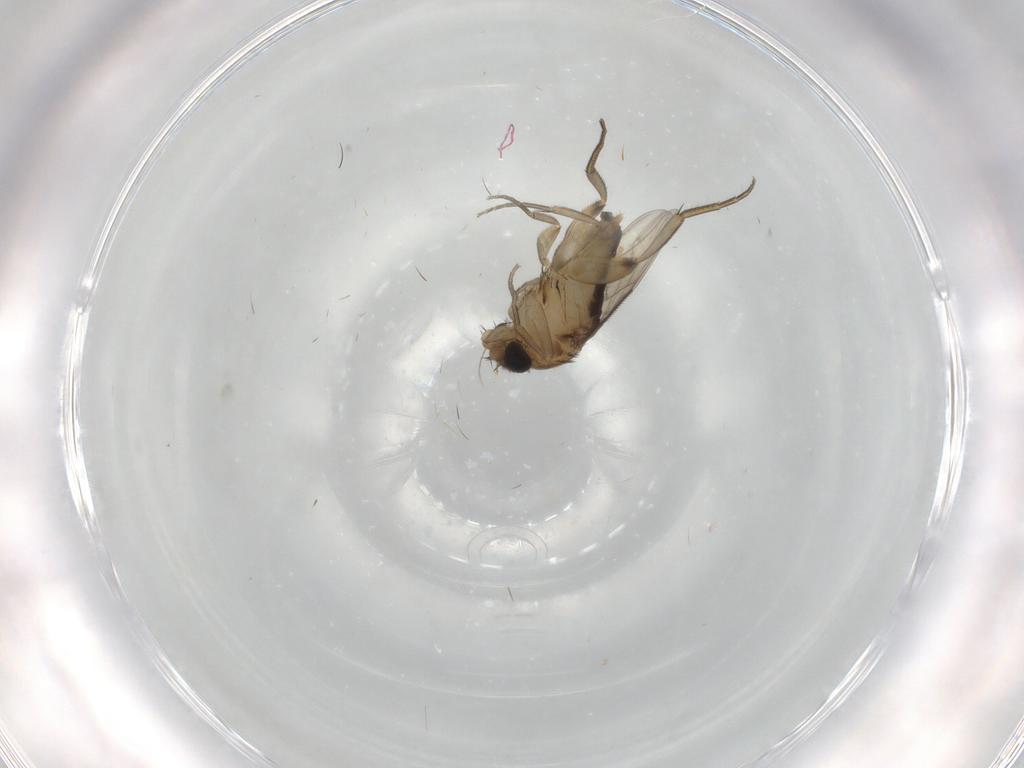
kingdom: Animalia
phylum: Arthropoda
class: Insecta
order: Diptera
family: Phoridae
